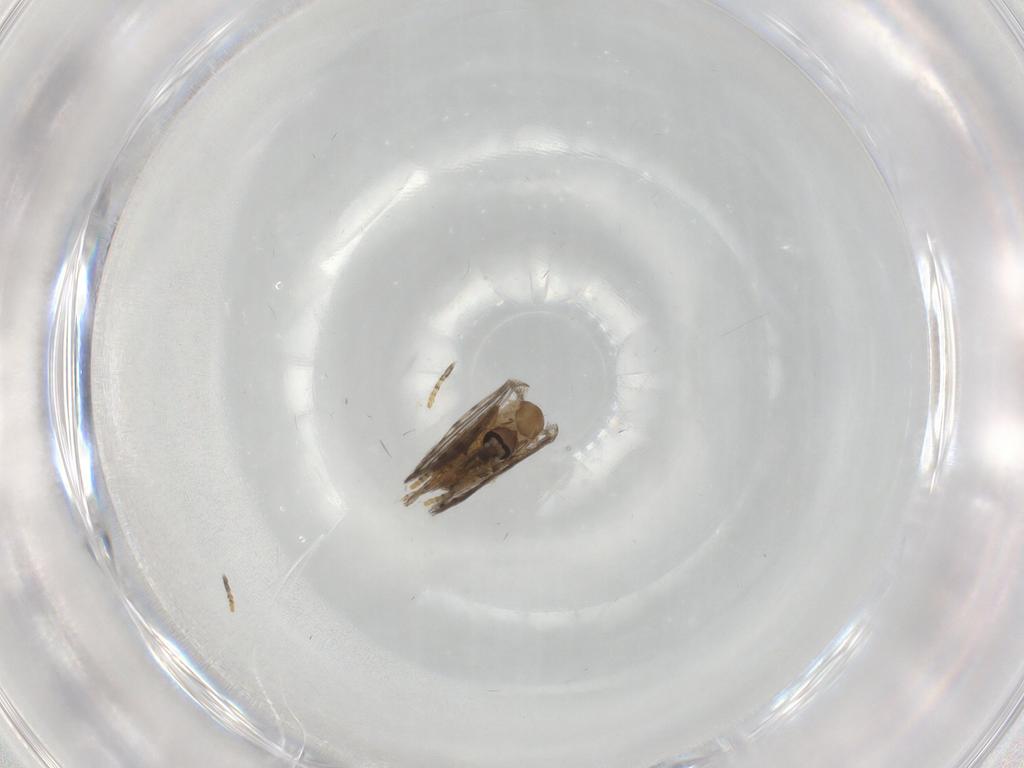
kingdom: Animalia
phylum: Arthropoda
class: Insecta
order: Diptera
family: Psychodidae
